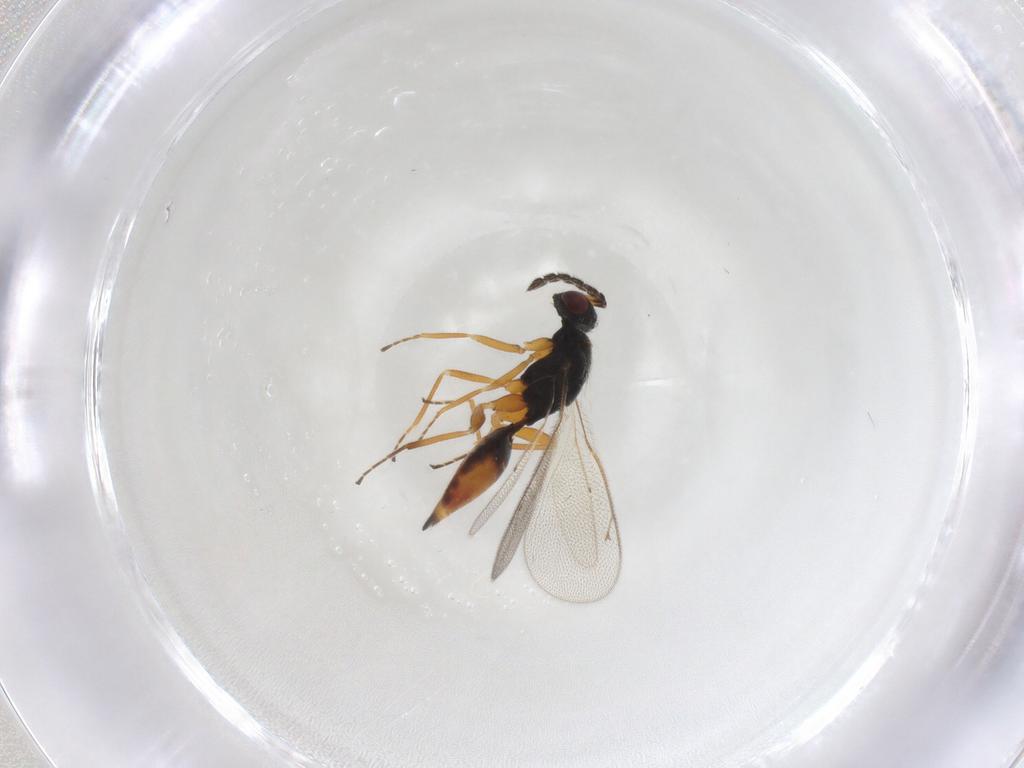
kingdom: Animalia
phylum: Arthropoda
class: Insecta
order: Hymenoptera
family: Eulophidae
